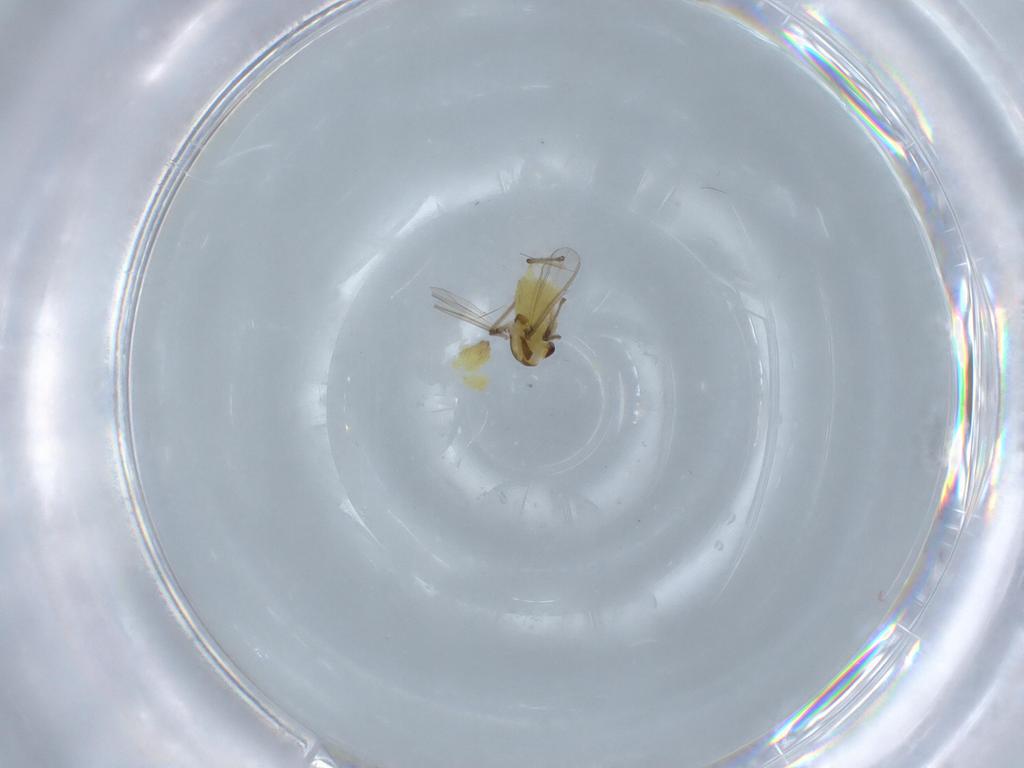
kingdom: Animalia
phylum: Arthropoda
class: Insecta
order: Diptera
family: Chironomidae
